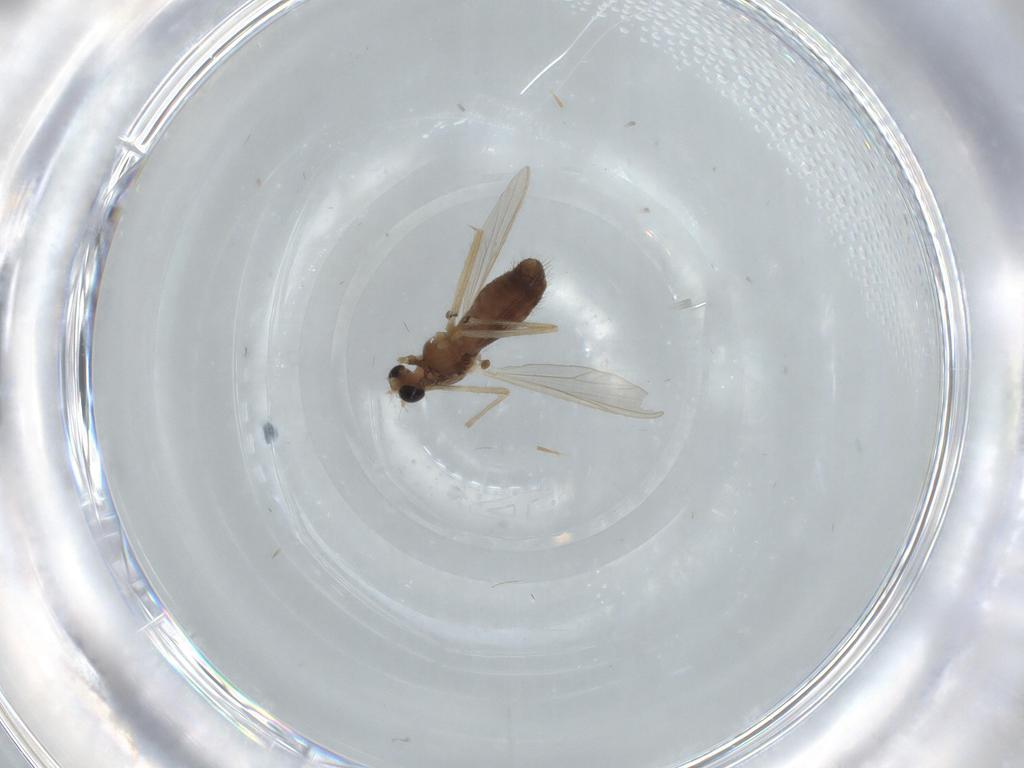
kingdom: Animalia
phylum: Arthropoda
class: Insecta
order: Diptera
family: Chironomidae
